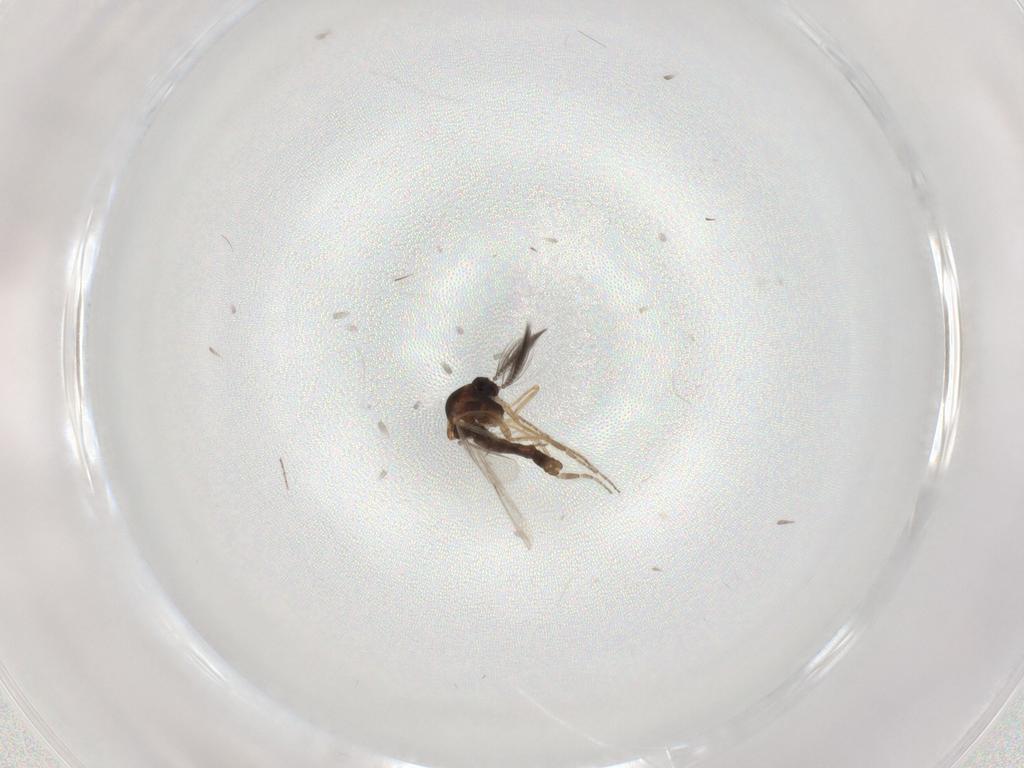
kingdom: Animalia
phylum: Arthropoda
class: Insecta
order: Diptera
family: Ceratopogonidae
